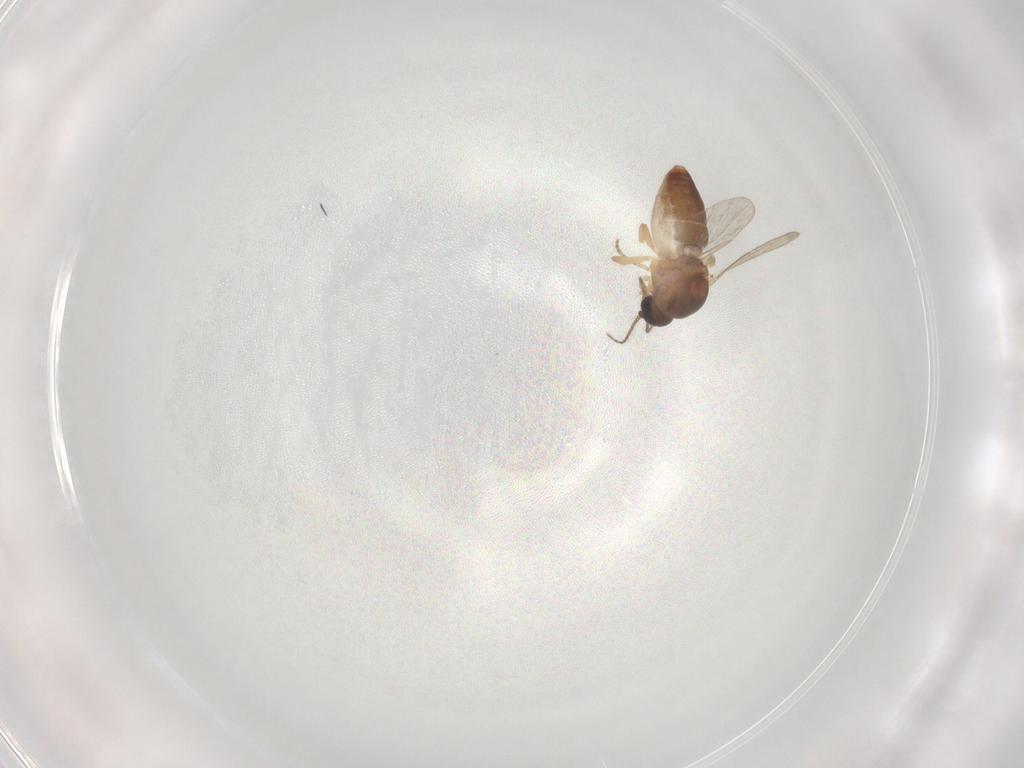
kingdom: Animalia
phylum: Arthropoda
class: Insecta
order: Diptera
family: Ceratopogonidae
